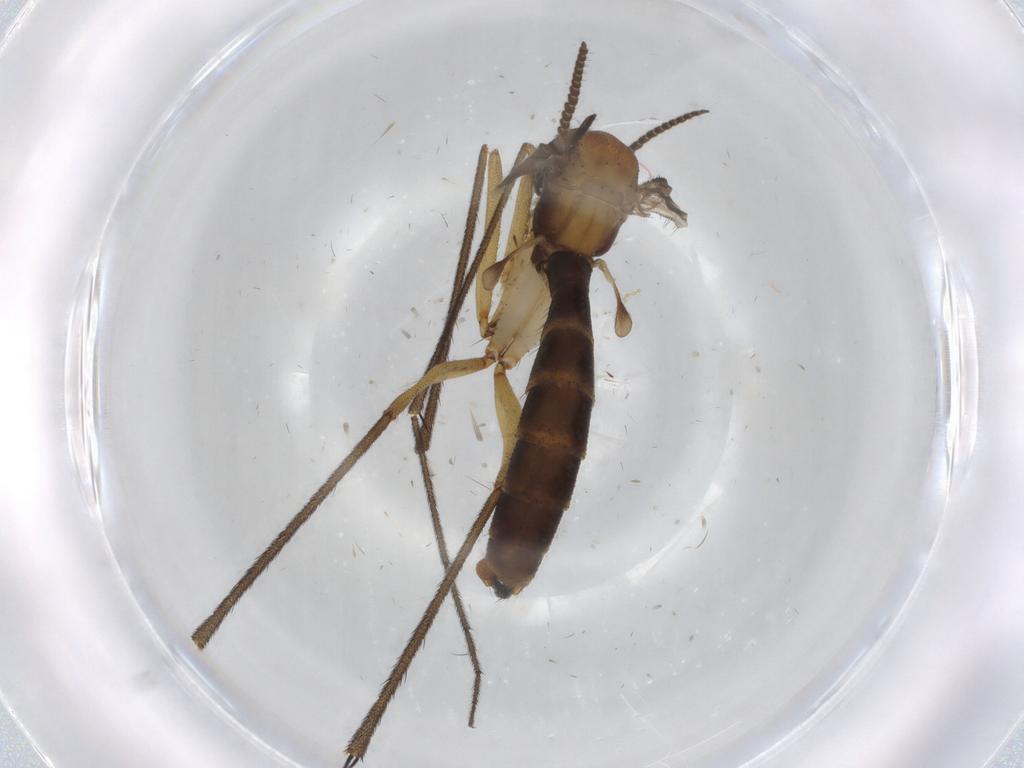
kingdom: Animalia
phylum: Arthropoda
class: Insecta
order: Diptera
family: Ditomyiidae
